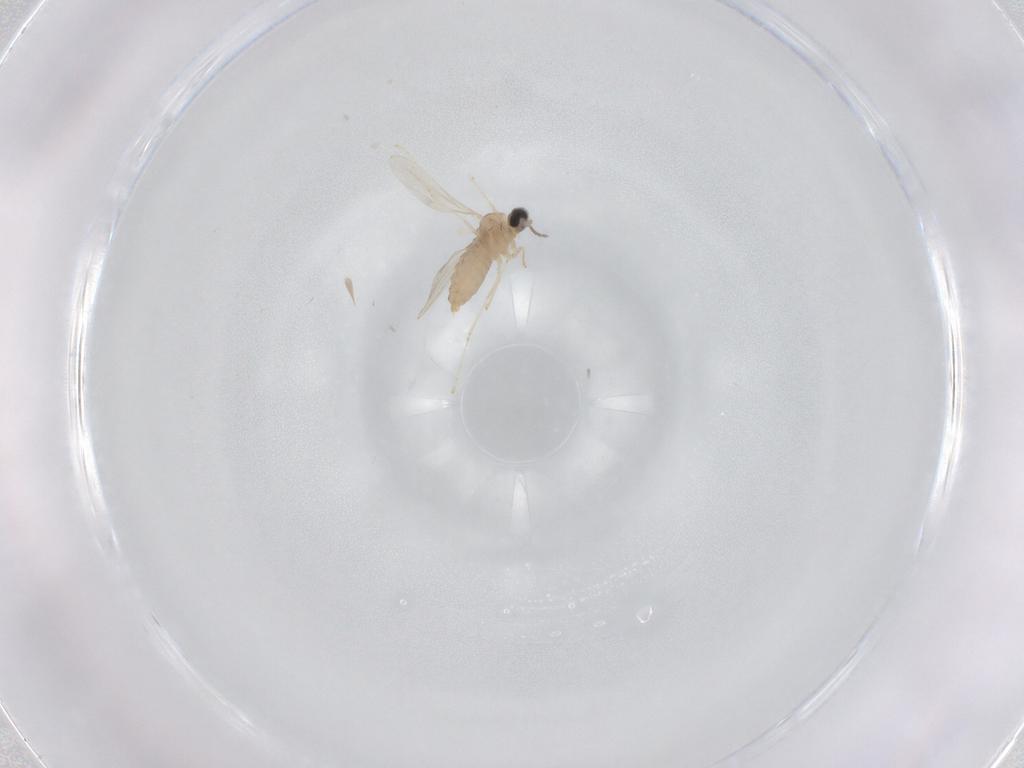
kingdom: Animalia
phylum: Arthropoda
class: Insecta
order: Diptera
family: Cecidomyiidae
